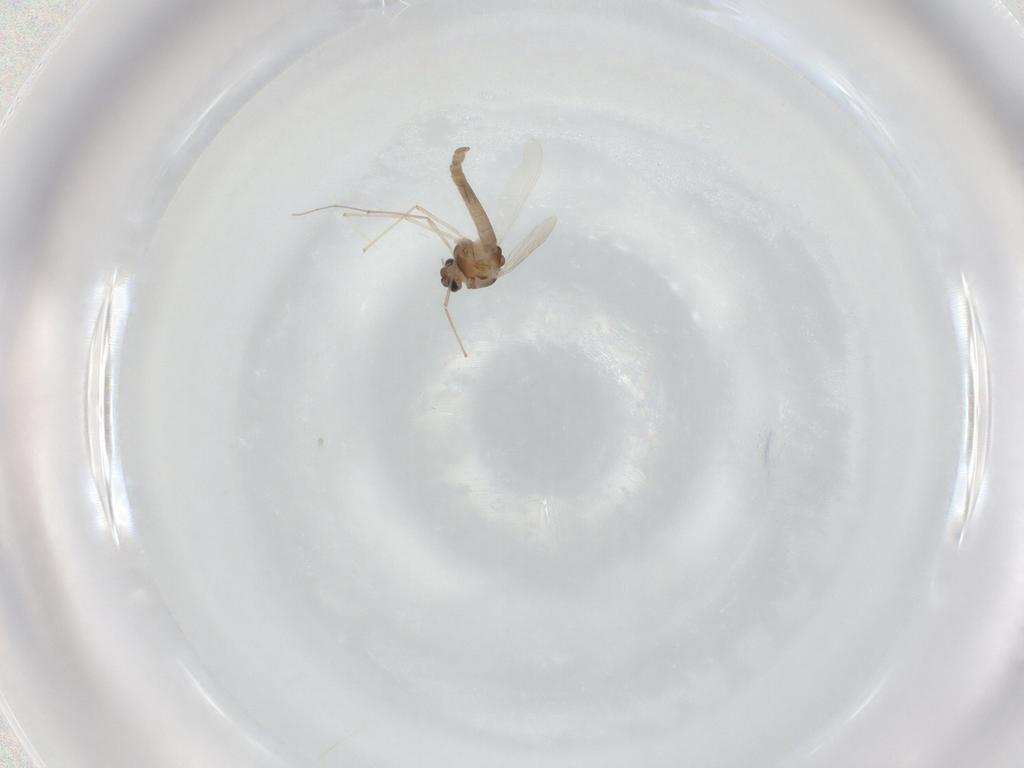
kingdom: Animalia
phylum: Arthropoda
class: Insecta
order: Diptera
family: Chironomidae
